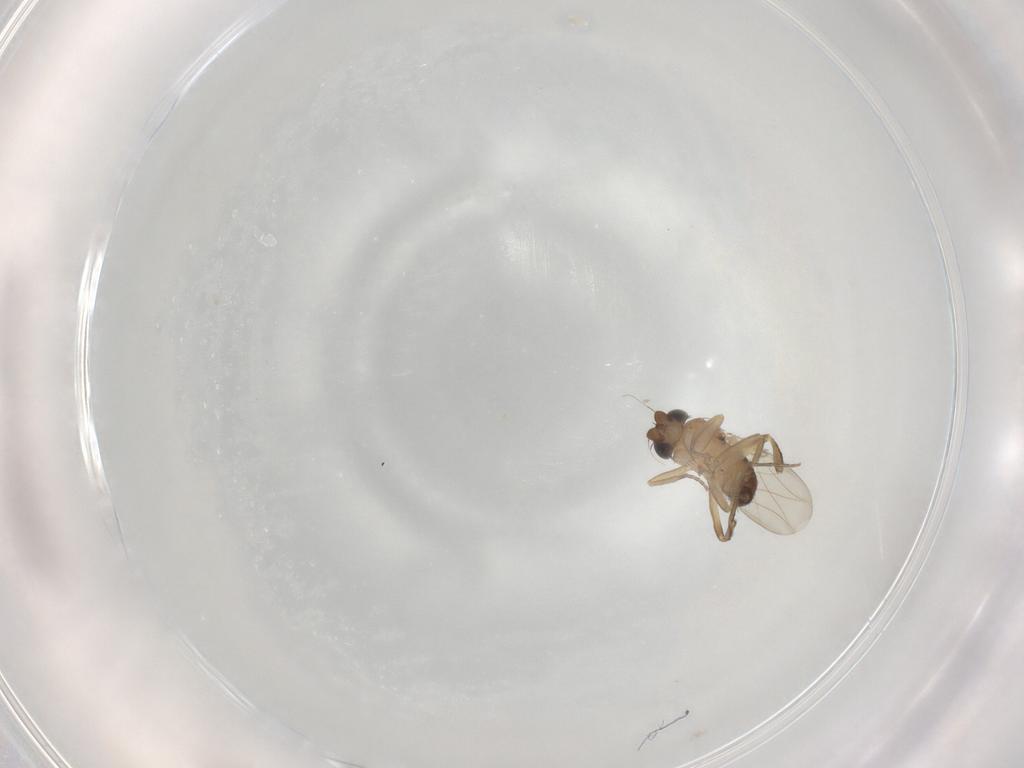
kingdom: Animalia
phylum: Arthropoda
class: Insecta
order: Diptera
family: Phoridae
